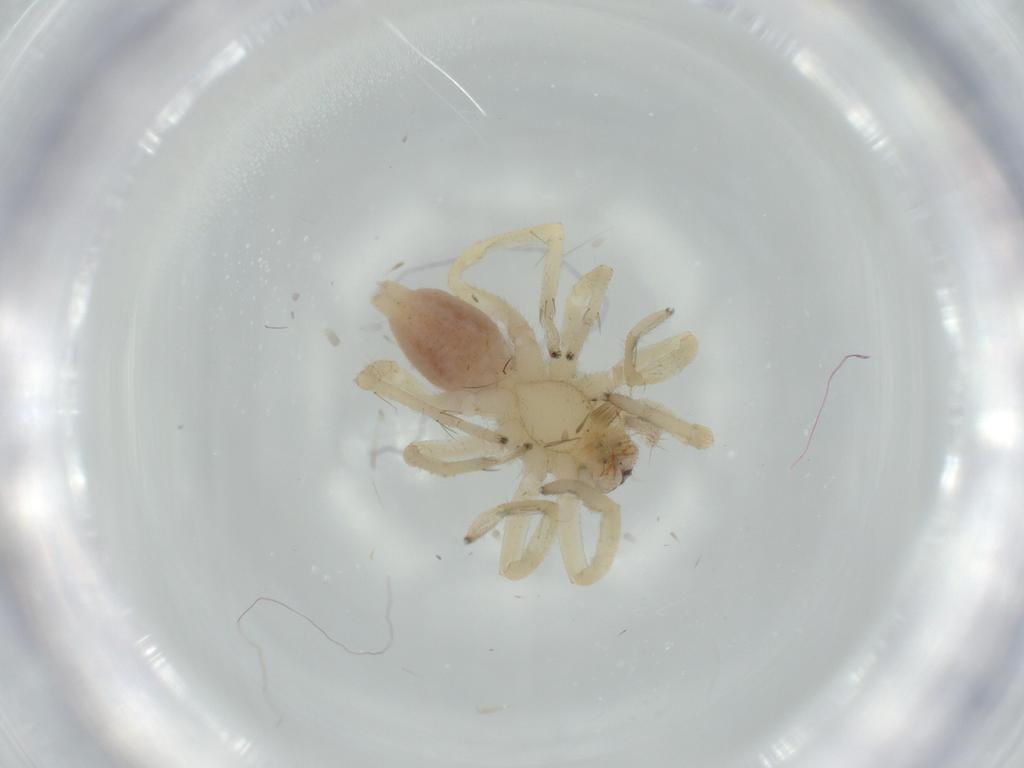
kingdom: Animalia
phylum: Arthropoda
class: Arachnida
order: Araneae
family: Linyphiidae
